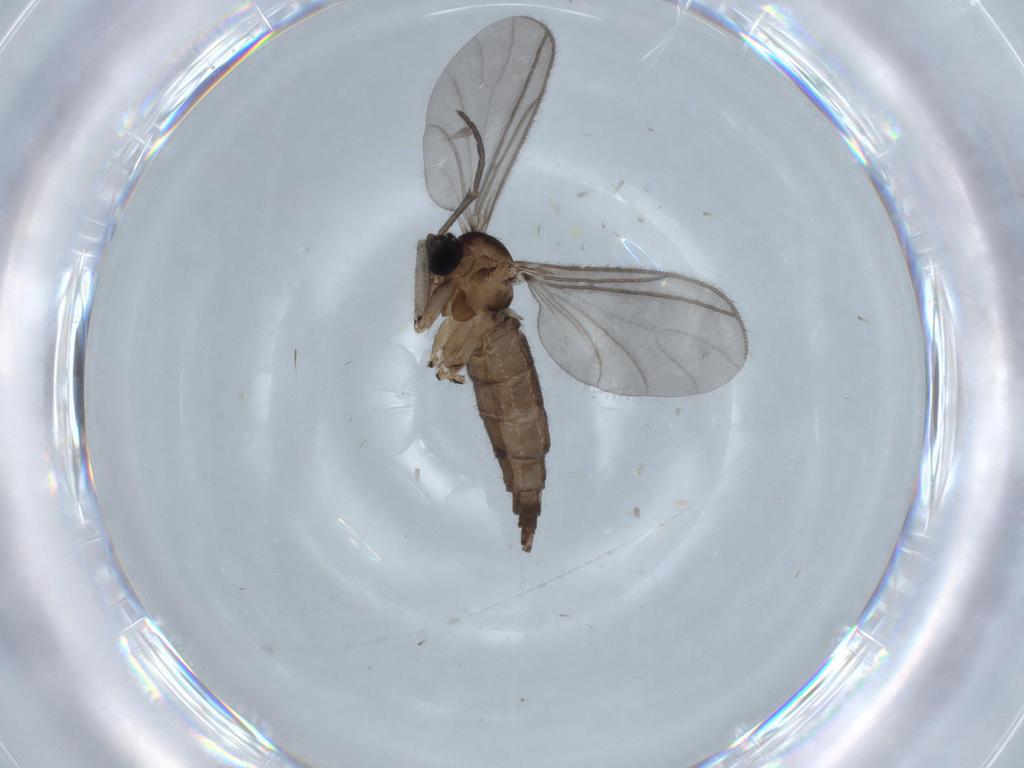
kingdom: Animalia
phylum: Arthropoda
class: Insecta
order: Diptera
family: Sciaridae
